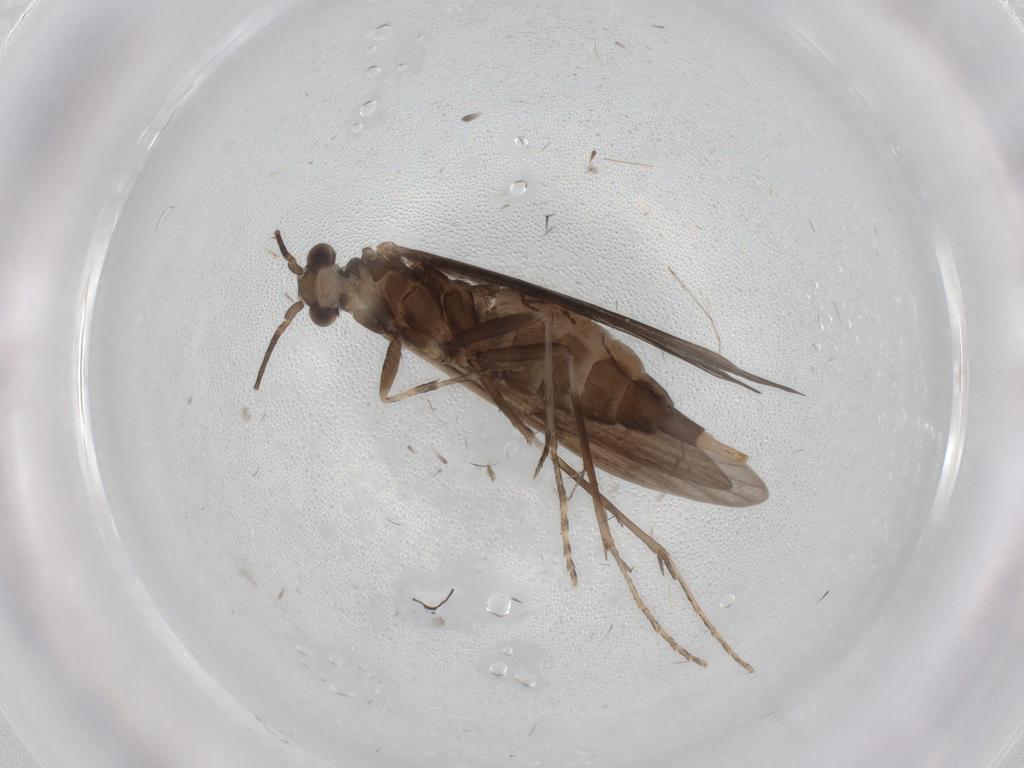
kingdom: Animalia
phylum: Arthropoda
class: Insecta
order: Trichoptera
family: Xiphocentronidae
